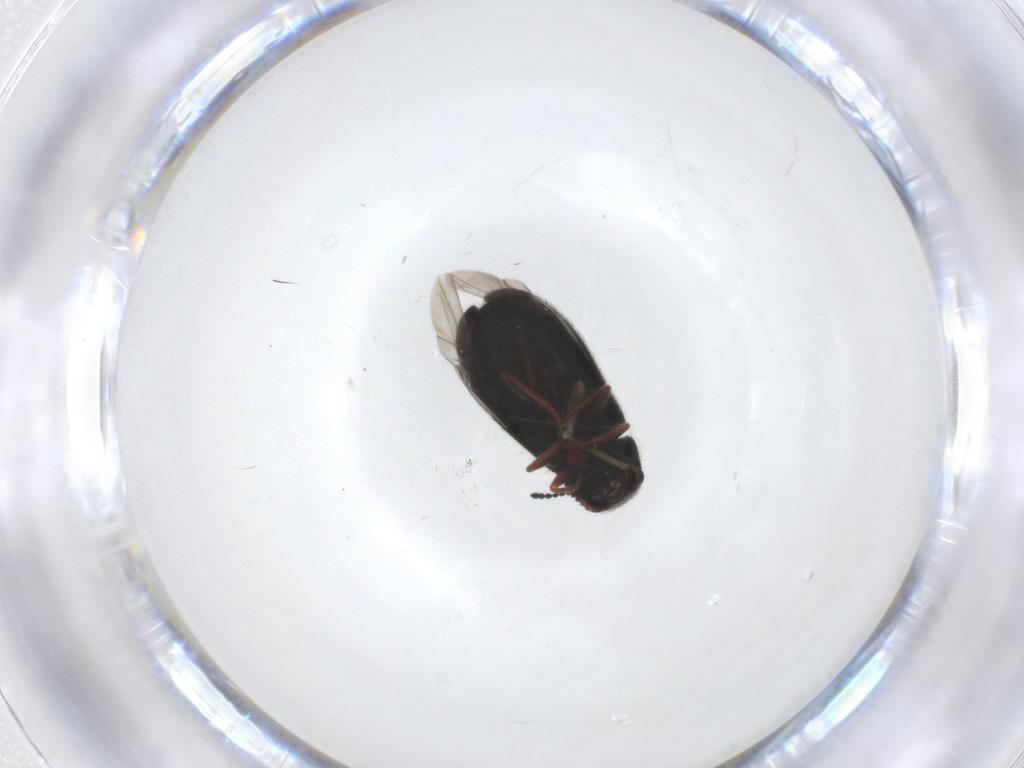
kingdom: Animalia
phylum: Arthropoda
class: Insecta
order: Coleoptera
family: Melyridae
